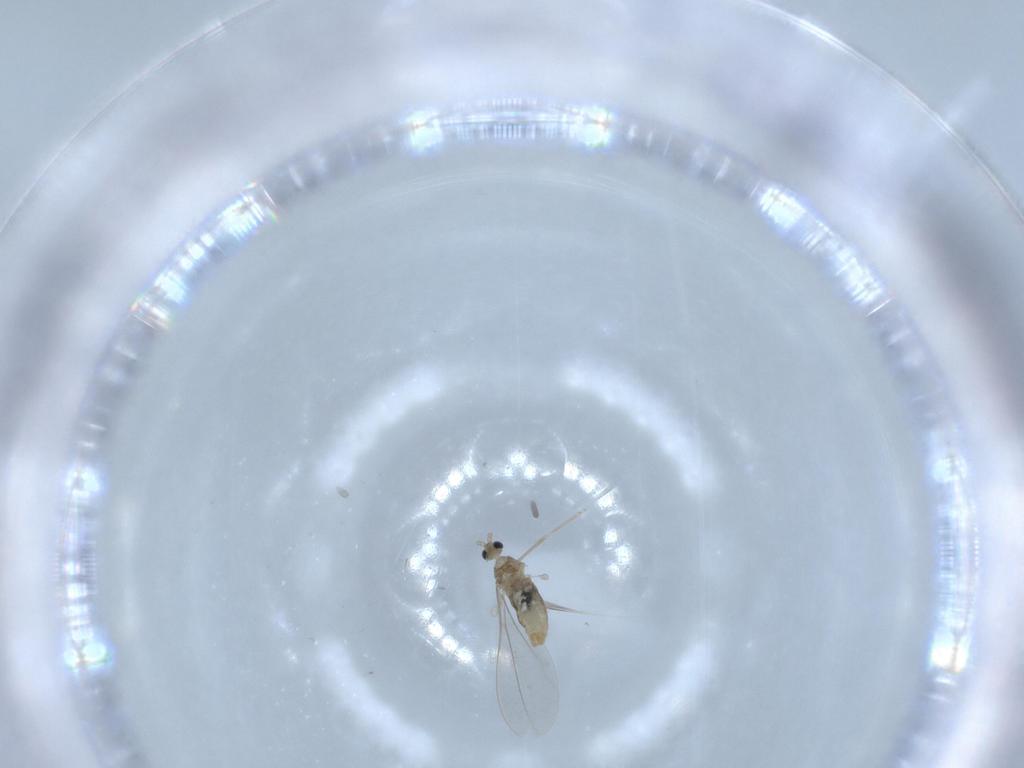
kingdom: Animalia
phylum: Arthropoda
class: Insecta
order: Diptera
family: Cecidomyiidae
